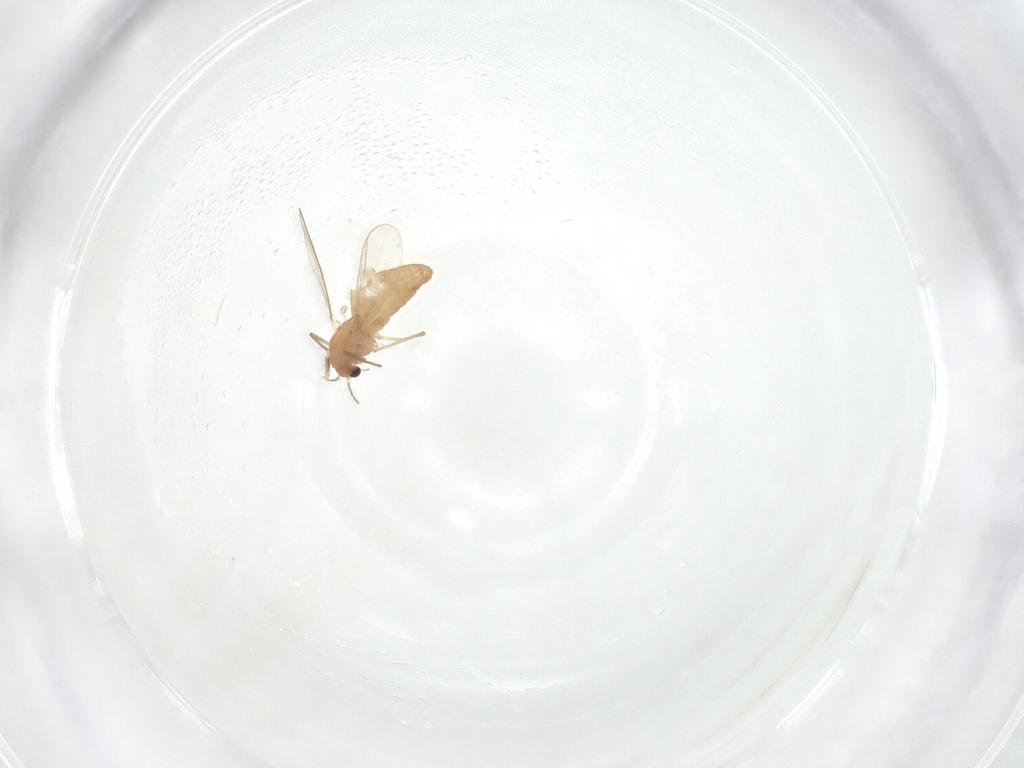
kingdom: Animalia
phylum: Arthropoda
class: Insecta
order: Diptera
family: Chironomidae
